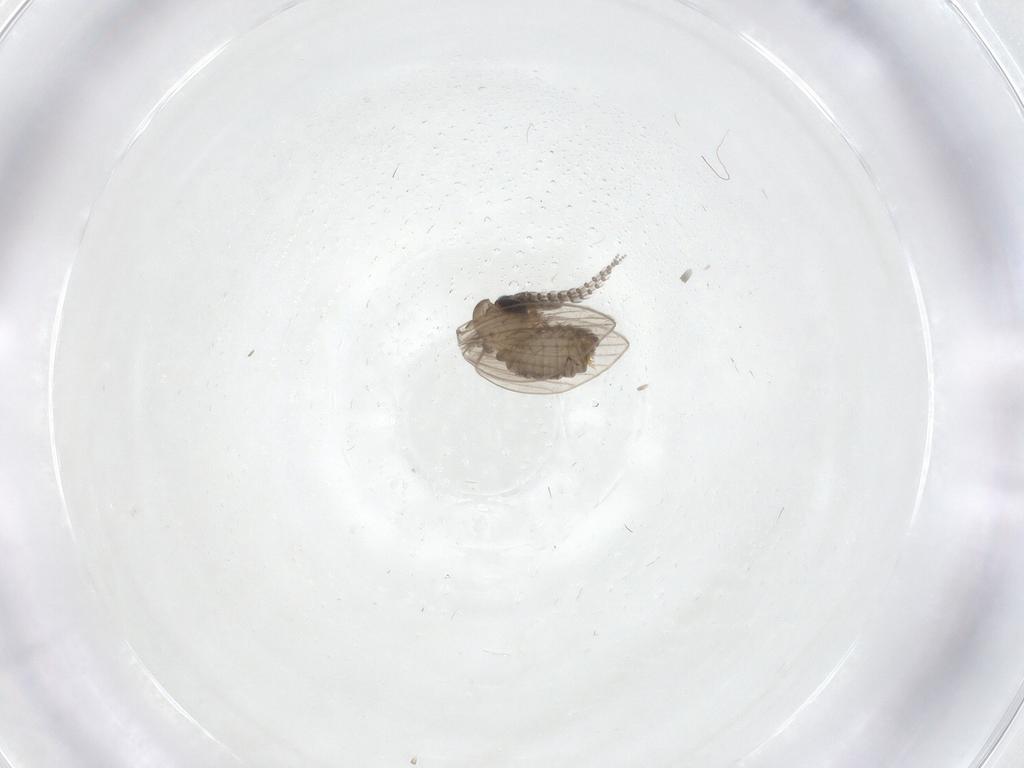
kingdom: Animalia
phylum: Arthropoda
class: Insecta
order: Diptera
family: Psychodidae
